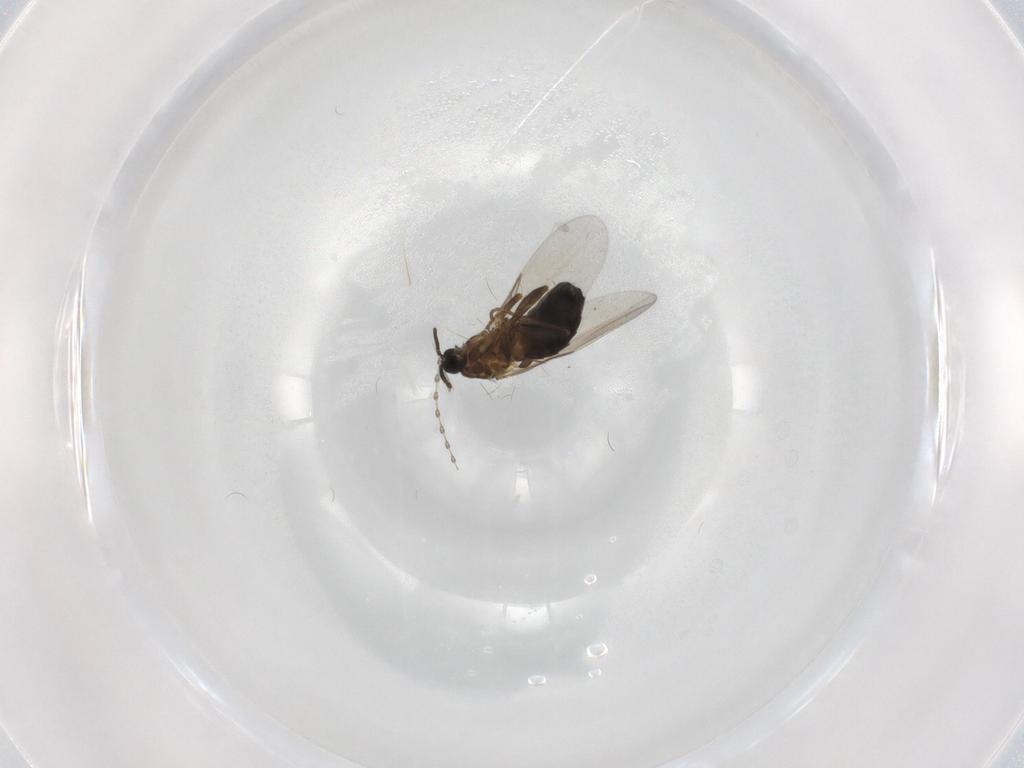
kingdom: Animalia
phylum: Arthropoda
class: Insecta
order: Diptera
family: Scatopsidae
